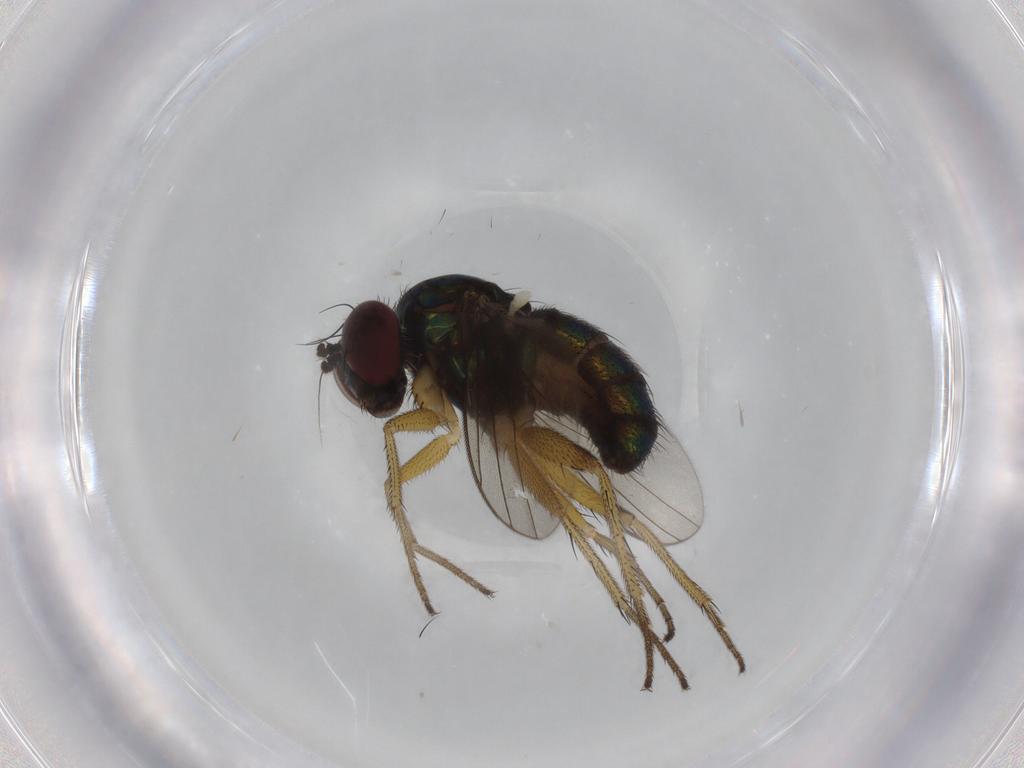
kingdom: Animalia
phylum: Arthropoda
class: Insecta
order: Diptera
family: Dolichopodidae
